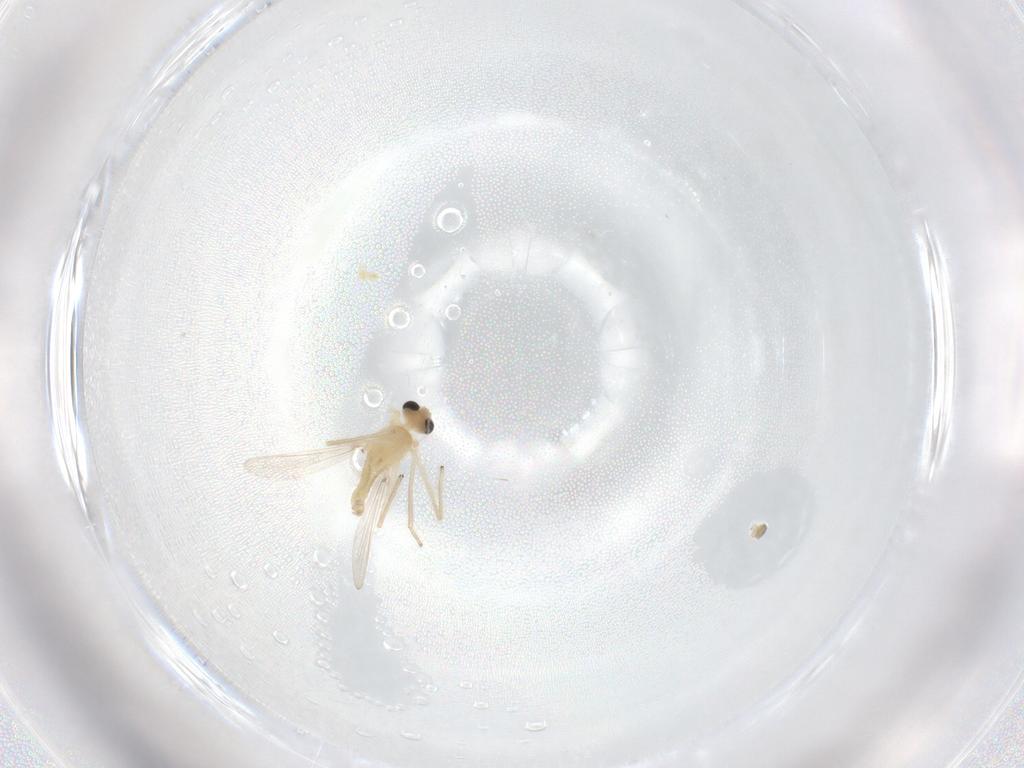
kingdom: Animalia
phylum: Arthropoda
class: Insecta
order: Diptera
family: Chironomidae
